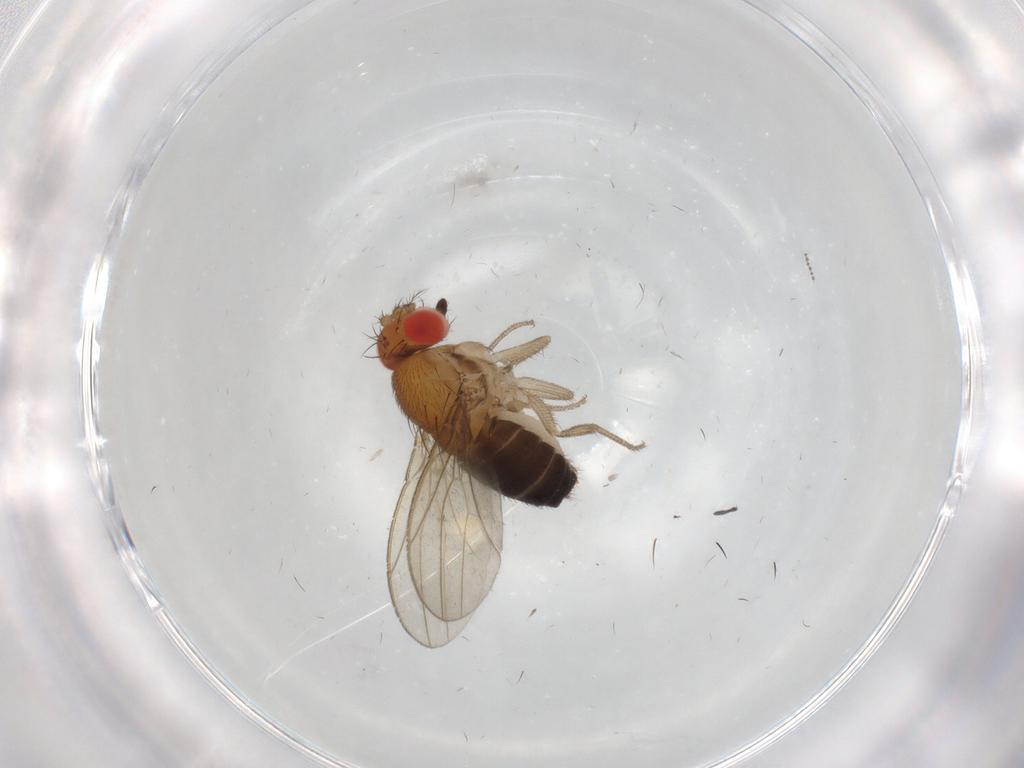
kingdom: Animalia
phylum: Arthropoda
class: Insecta
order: Diptera
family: Drosophilidae
